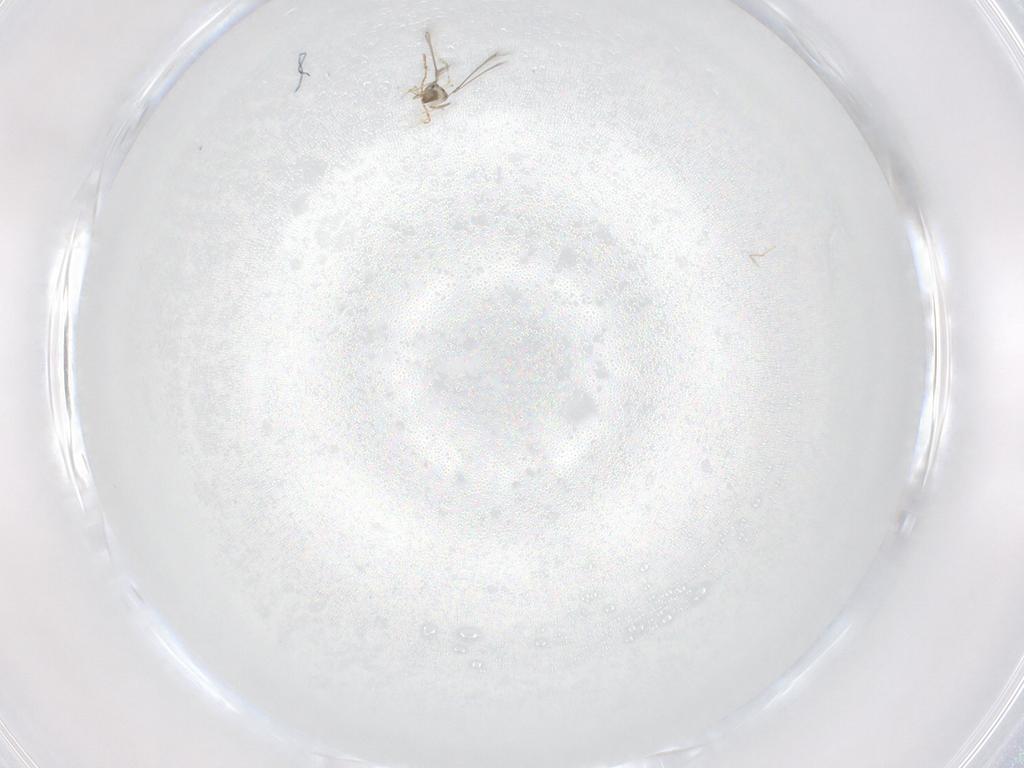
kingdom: Animalia
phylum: Arthropoda
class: Insecta
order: Hymenoptera
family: Mymaridae
